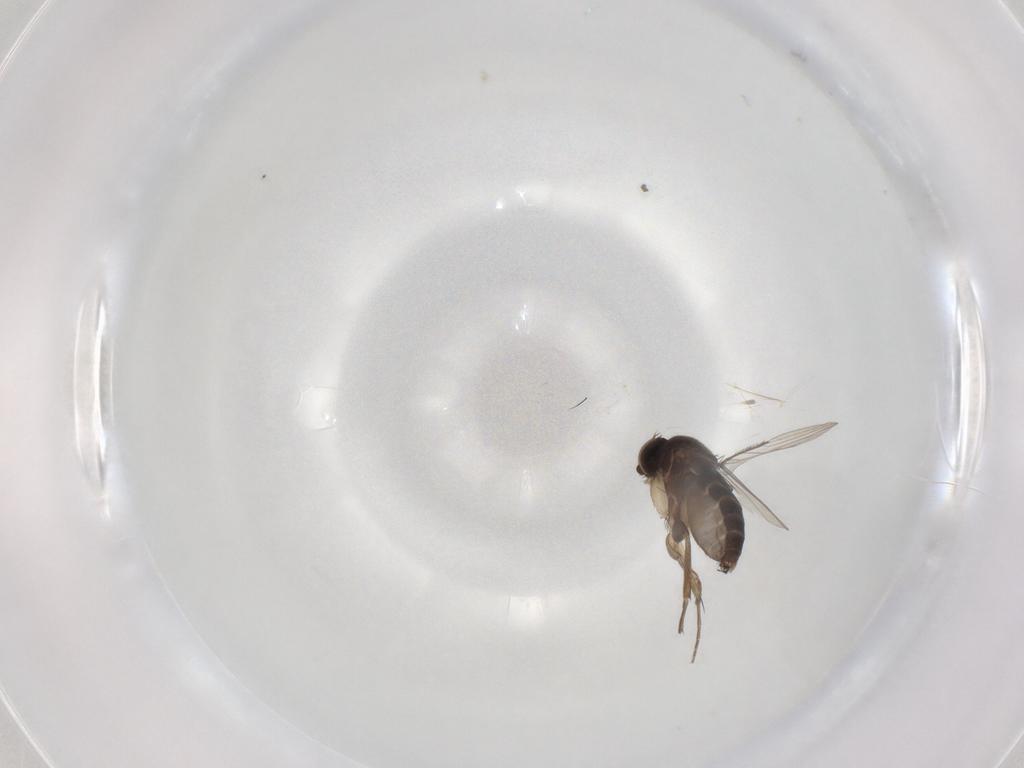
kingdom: Animalia
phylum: Arthropoda
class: Insecta
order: Diptera
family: Phoridae
